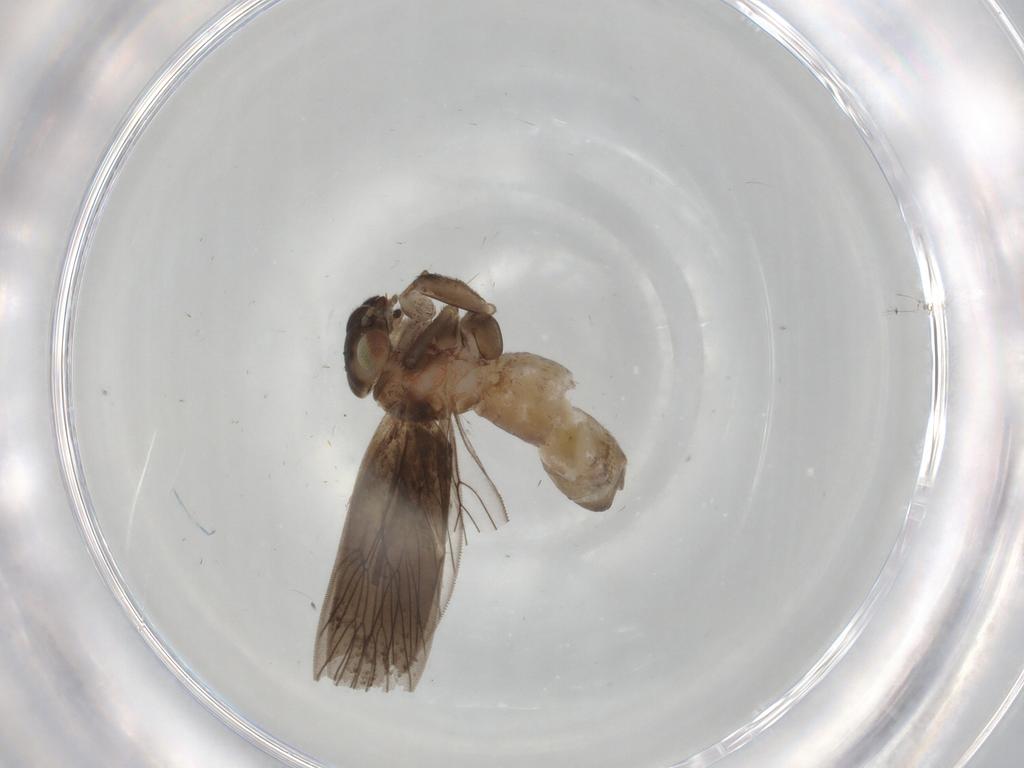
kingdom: Animalia
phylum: Arthropoda
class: Insecta
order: Psocodea
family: Lepidopsocidae
